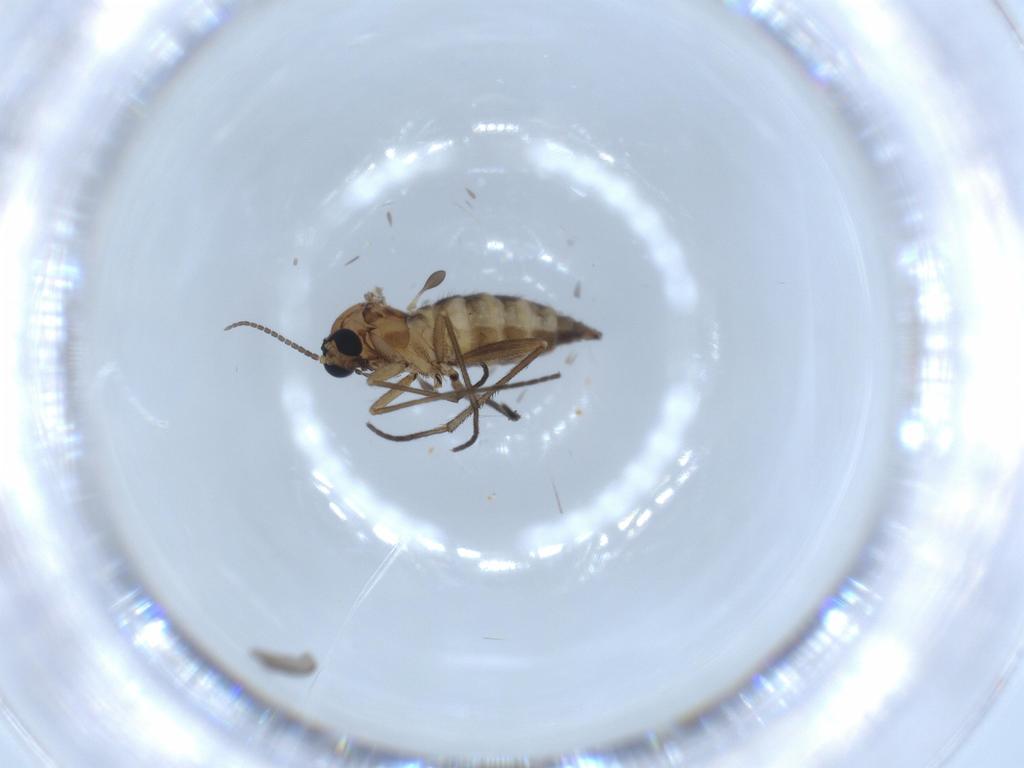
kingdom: Animalia
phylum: Arthropoda
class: Insecta
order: Diptera
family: Sciaridae
